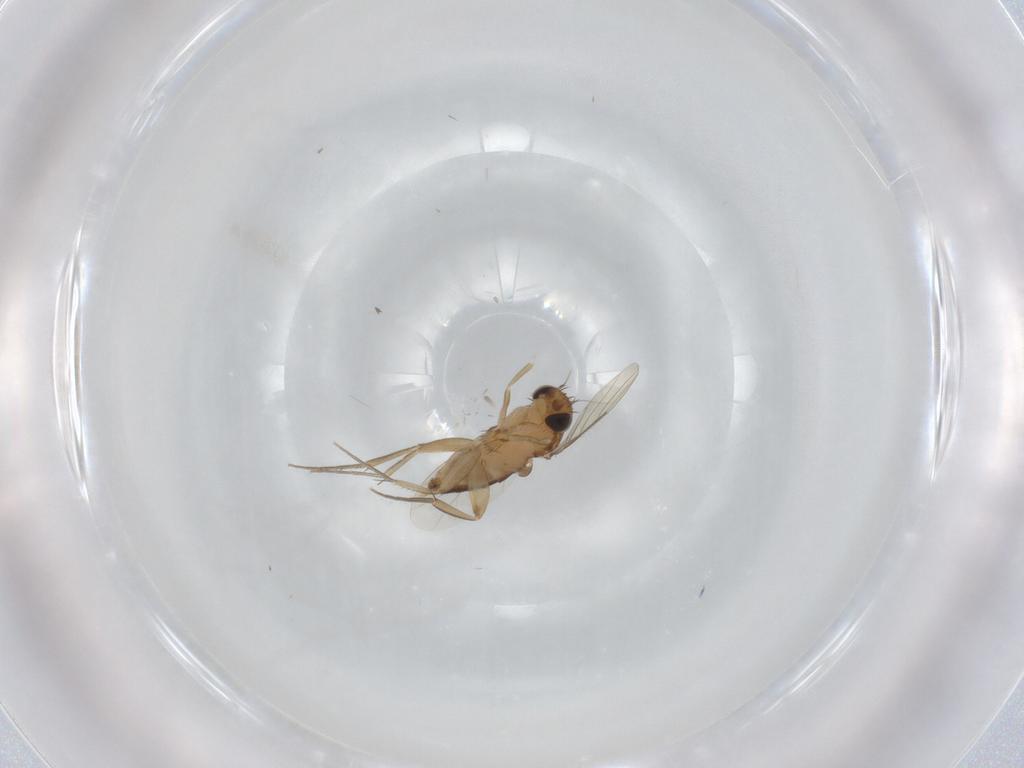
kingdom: Animalia
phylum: Arthropoda
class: Insecta
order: Diptera
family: Phoridae
